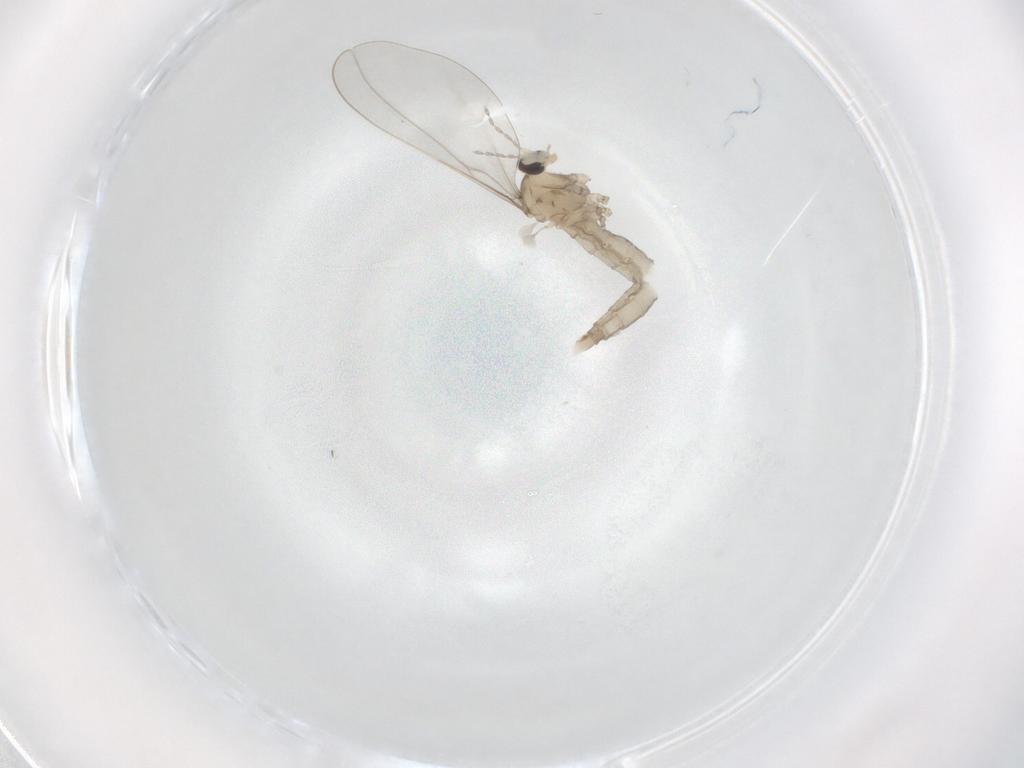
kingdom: Animalia
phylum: Arthropoda
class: Insecta
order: Diptera
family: Cecidomyiidae
